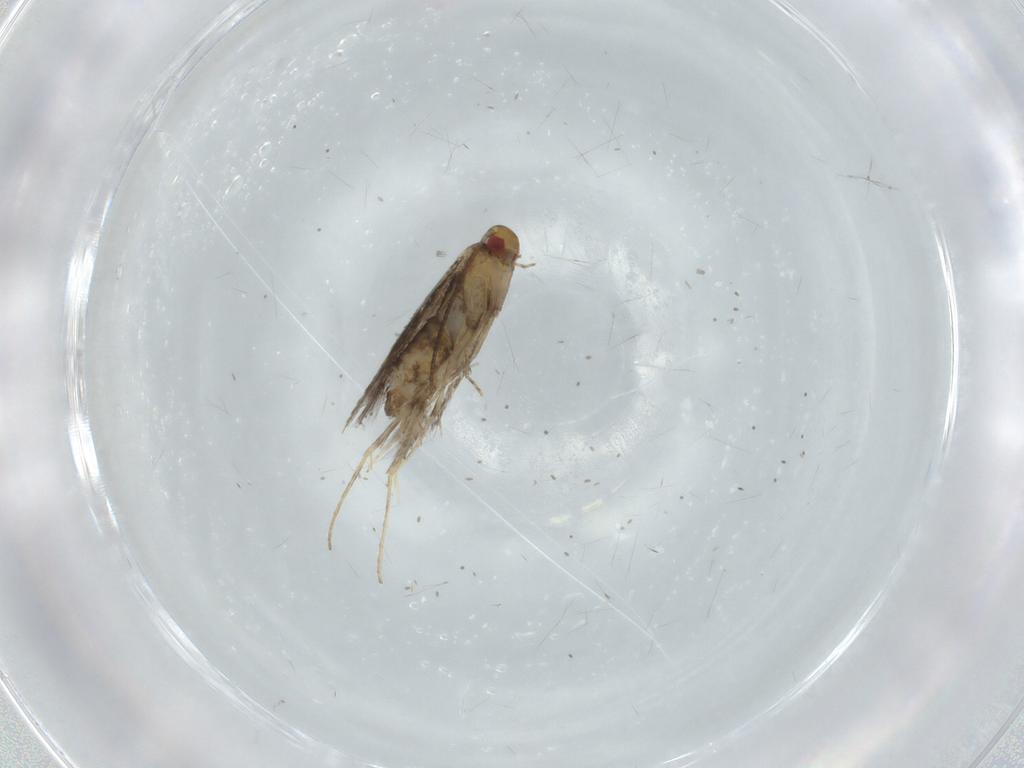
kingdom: Animalia
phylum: Arthropoda
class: Insecta
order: Lepidoptera
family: Gracillariidae
